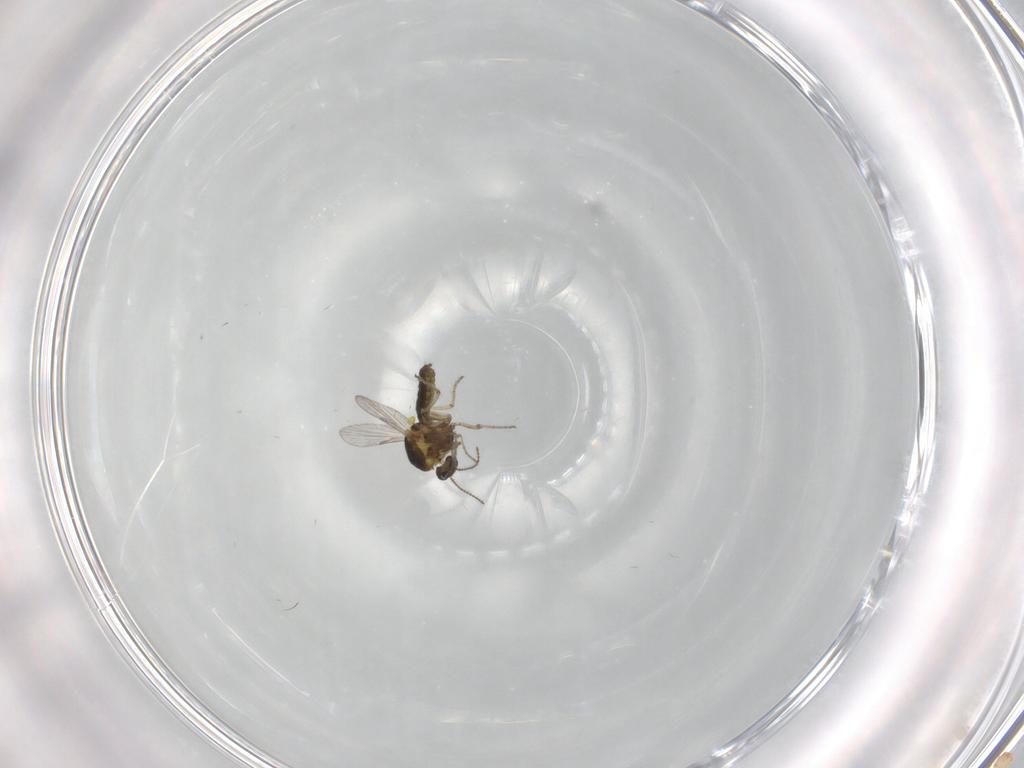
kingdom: Animalia
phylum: Arthropoda
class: Insecta
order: Diptera
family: Ceratopogonidae
